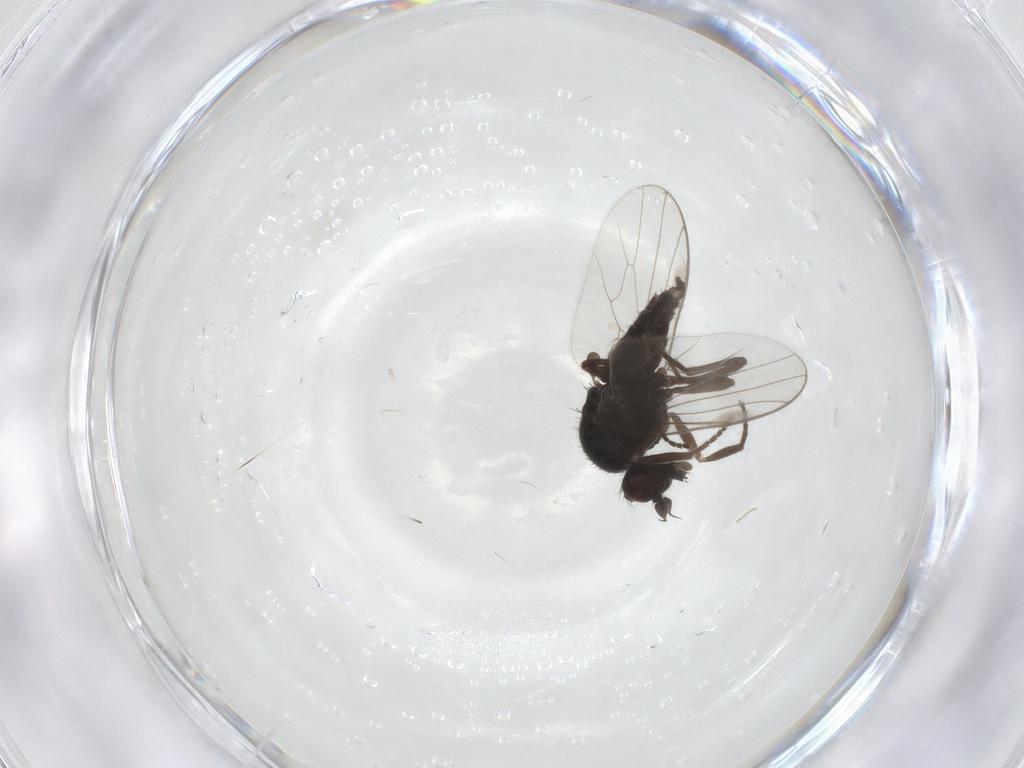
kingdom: Animalia
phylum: Arthropoda
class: Insecta
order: Diptera
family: Hybotidae
